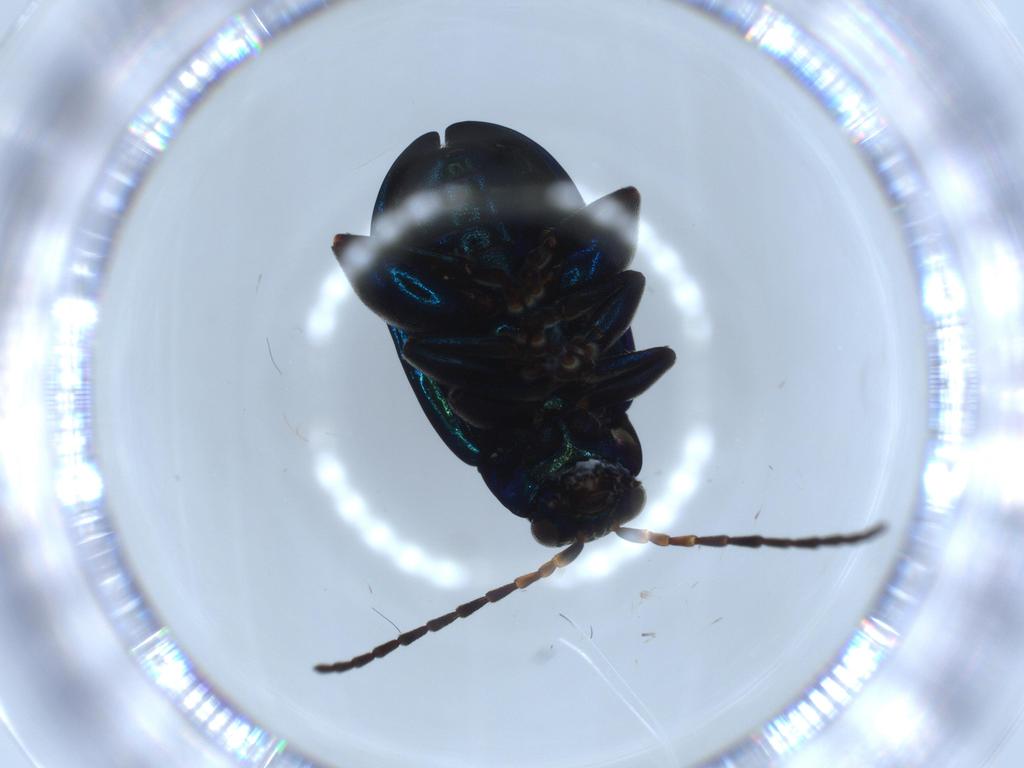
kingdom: Animalia
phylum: Arthropoda
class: Insecta
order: Coleoptera
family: Chrysomelidae
